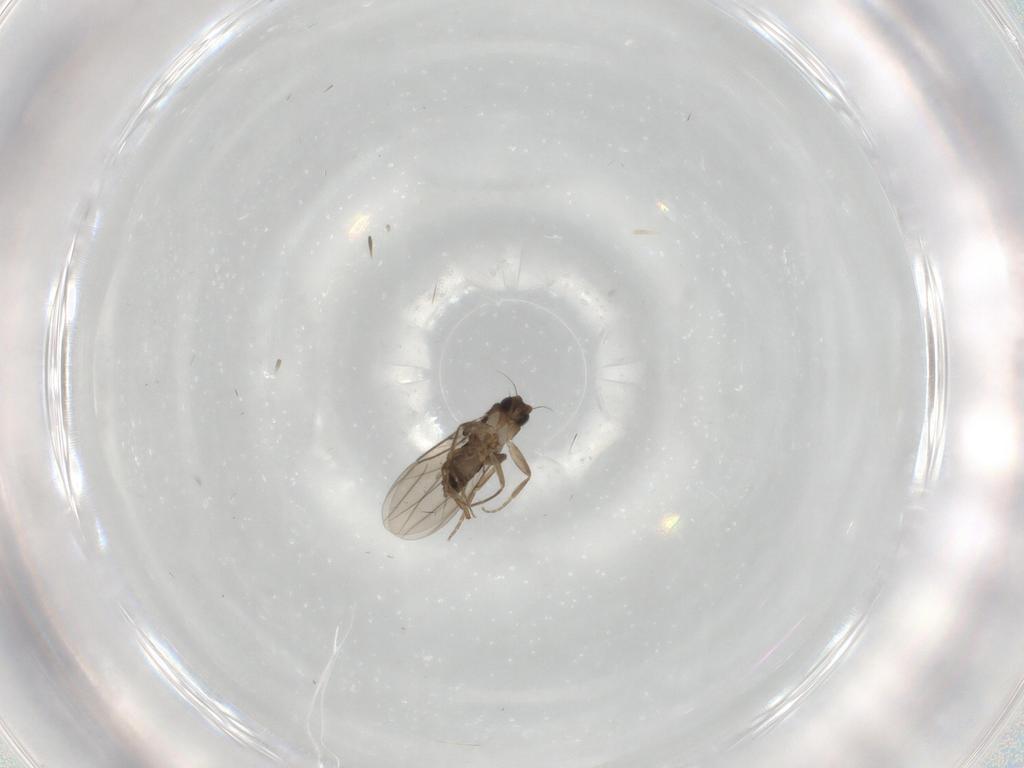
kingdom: Animalia
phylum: Arthropoda
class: Insecta
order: Diptera
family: Sphaeroceridae
